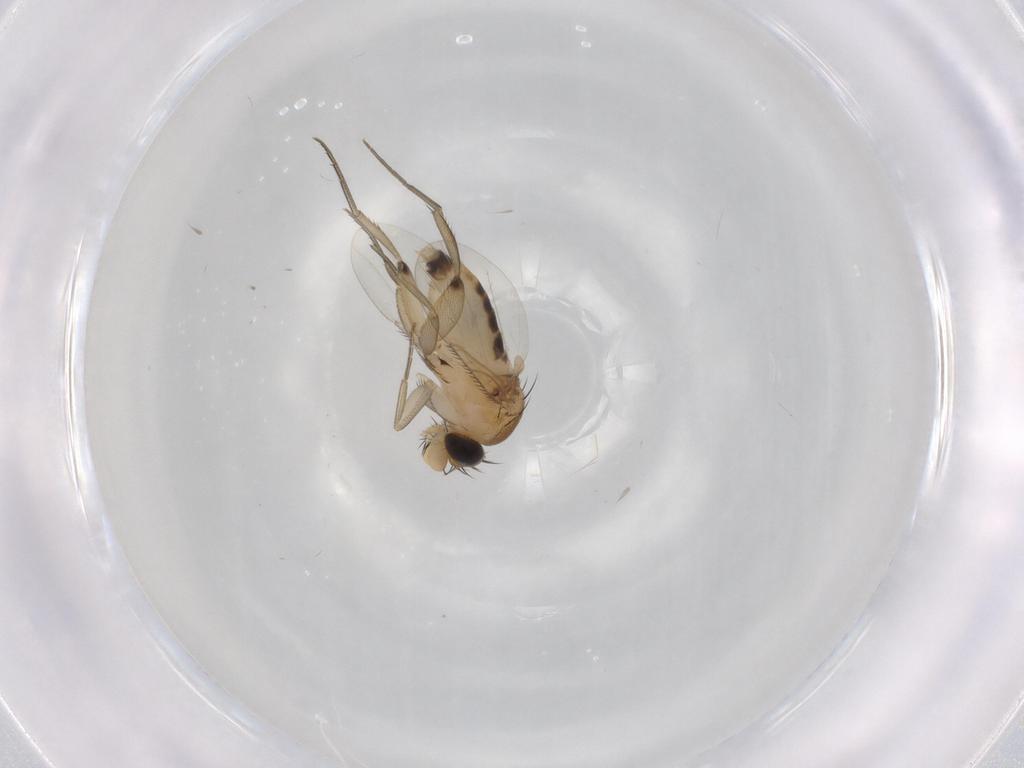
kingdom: Animalia
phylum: Arthropoda
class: Insecta
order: Diptera
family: Phoridae
